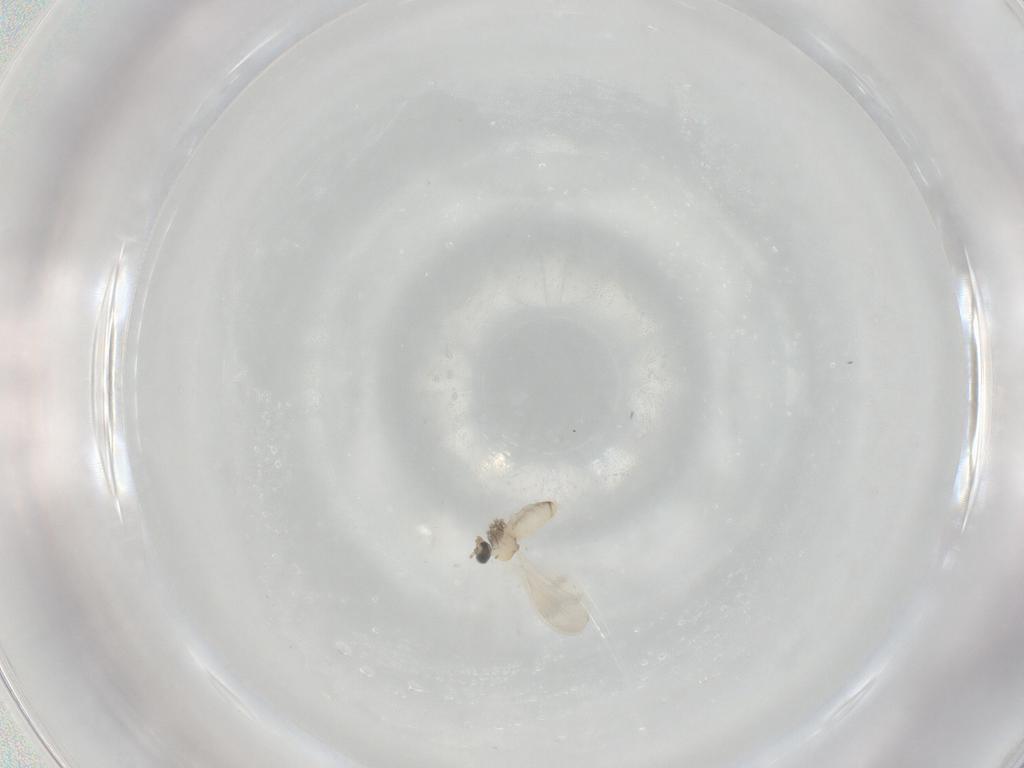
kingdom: Animalia
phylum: Arthropoda
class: Insecta
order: Diptera
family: Cecidomyiidae
